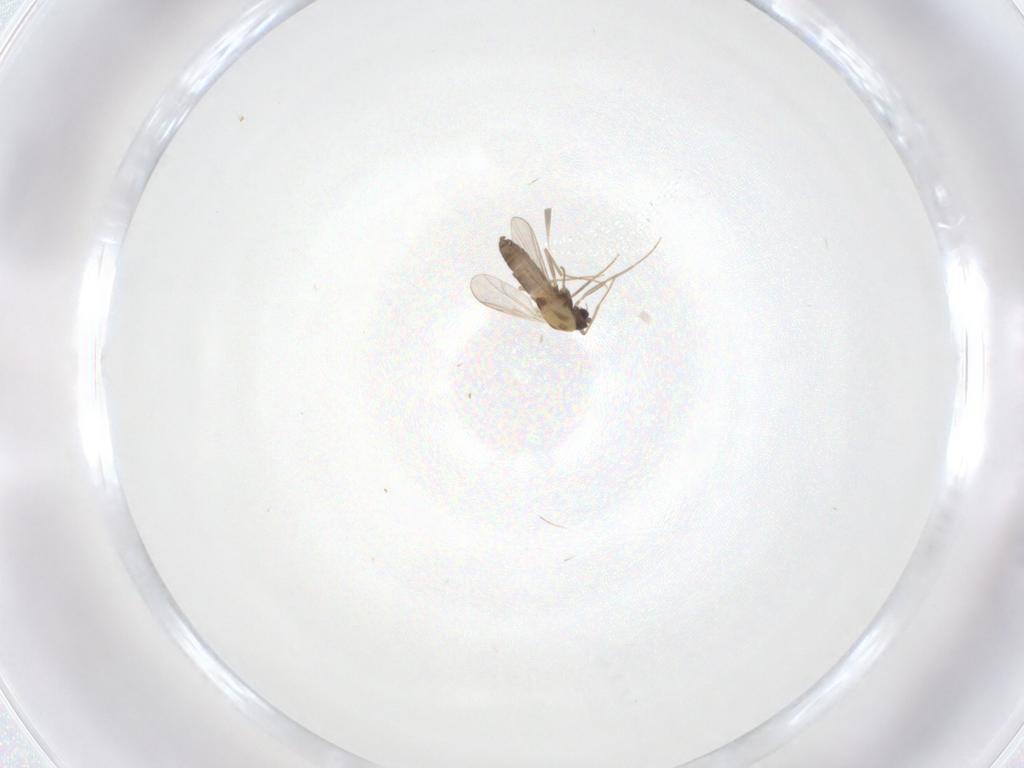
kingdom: Animalia
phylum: Arthropoda
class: Insecta
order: Diptera
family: Chironomidae
